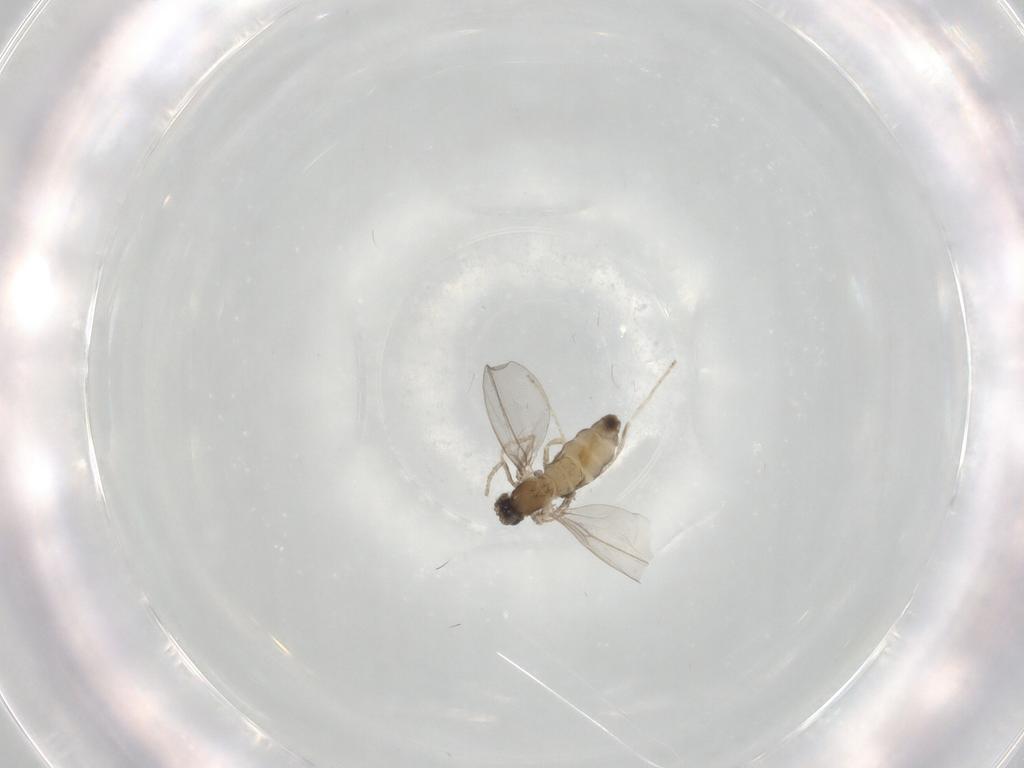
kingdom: Animalia
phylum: Arthropoda
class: Insecta
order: Diptera
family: Cecidomyiidae
